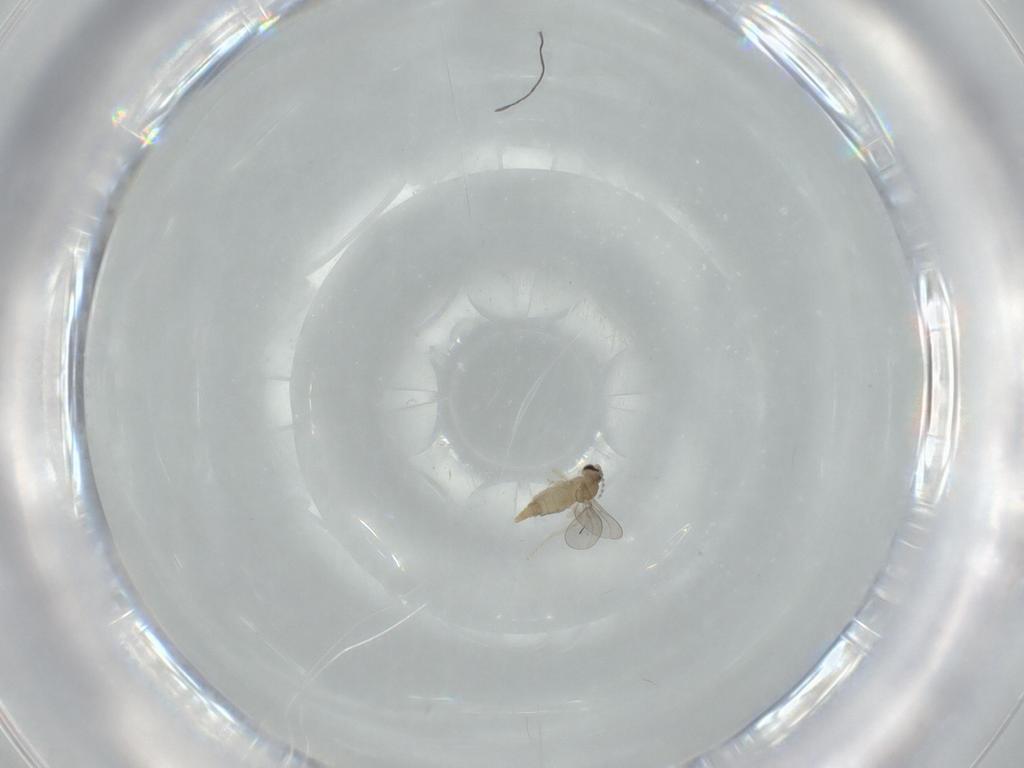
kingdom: Animalia
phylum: Arthropoda
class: Insecta
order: Diptera
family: Cecidomyiidae
